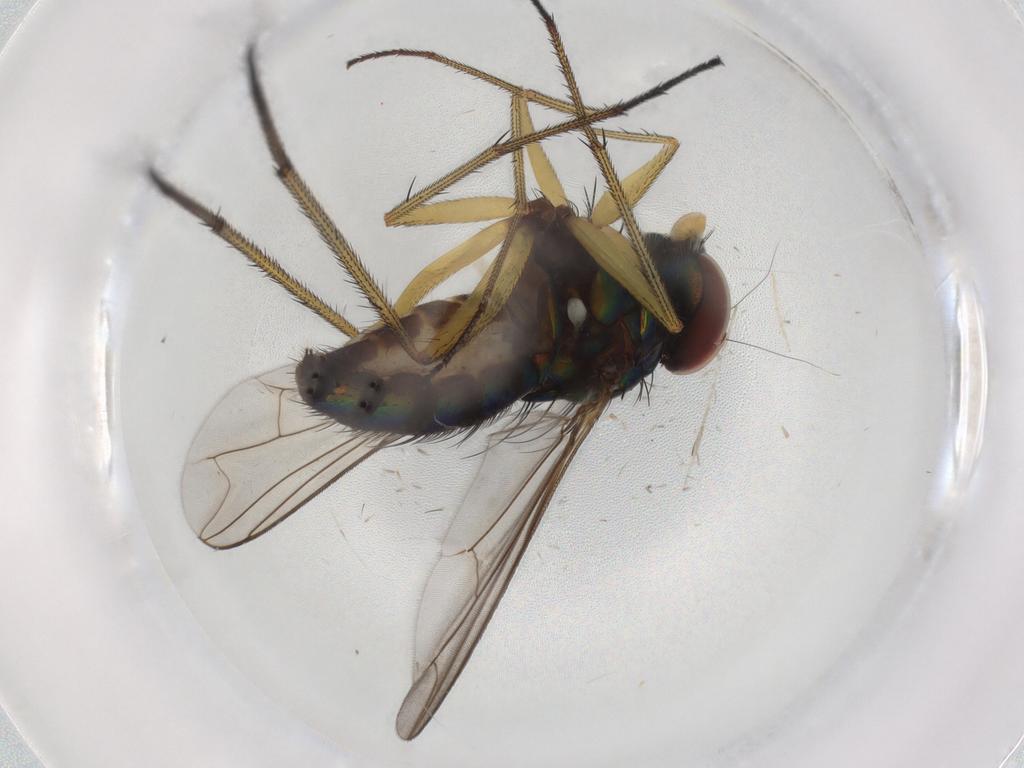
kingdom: Animalia
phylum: Arthropoda
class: Insecta
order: Diptera
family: Dolichopodidae
